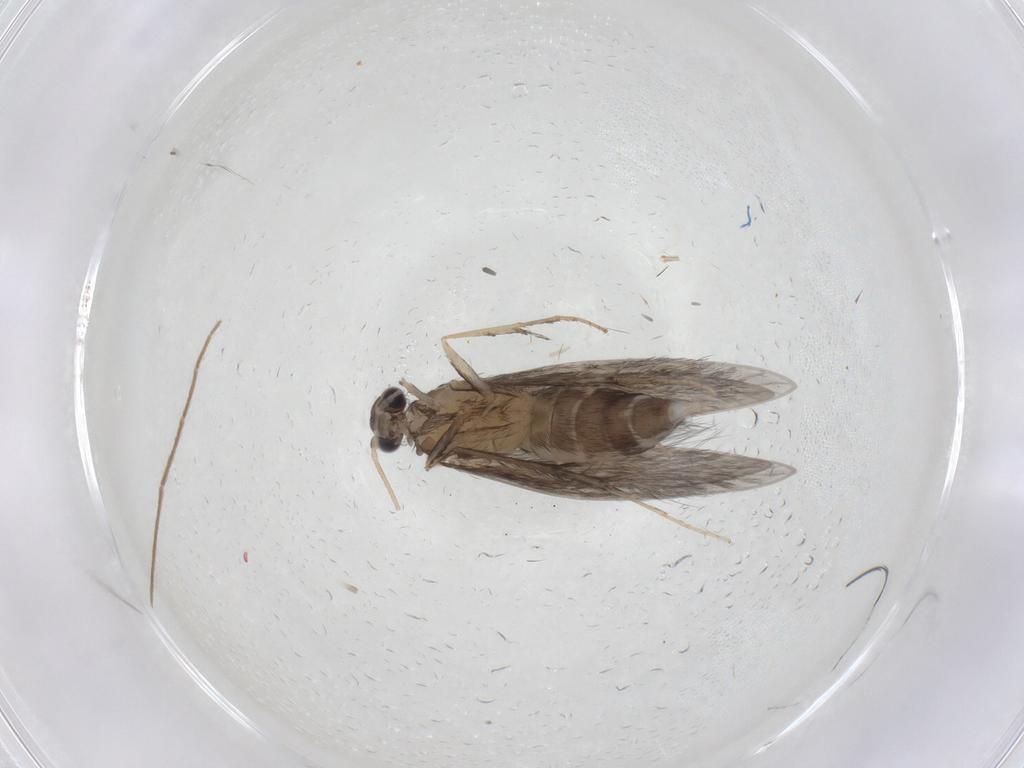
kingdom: Animalia
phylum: Arthropoda
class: Insecta
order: Trichoptera
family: Hydroptilidae
